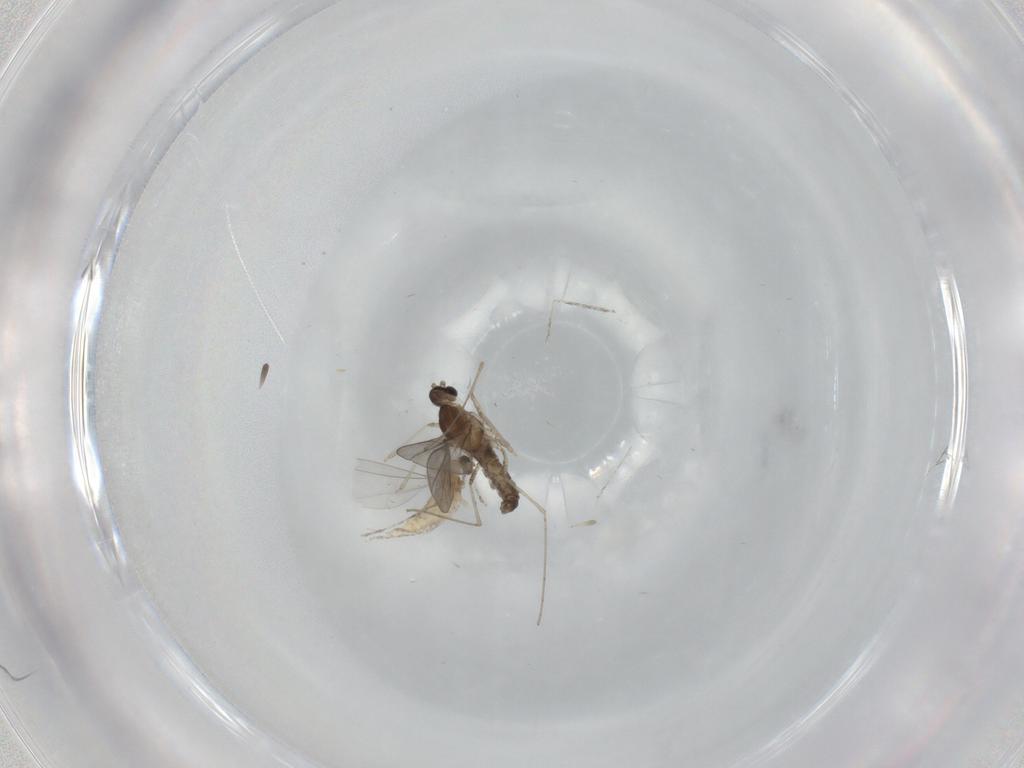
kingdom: Animalia
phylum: Arthropoda
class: Insecta
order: Diptera
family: Cecidomyiidae
